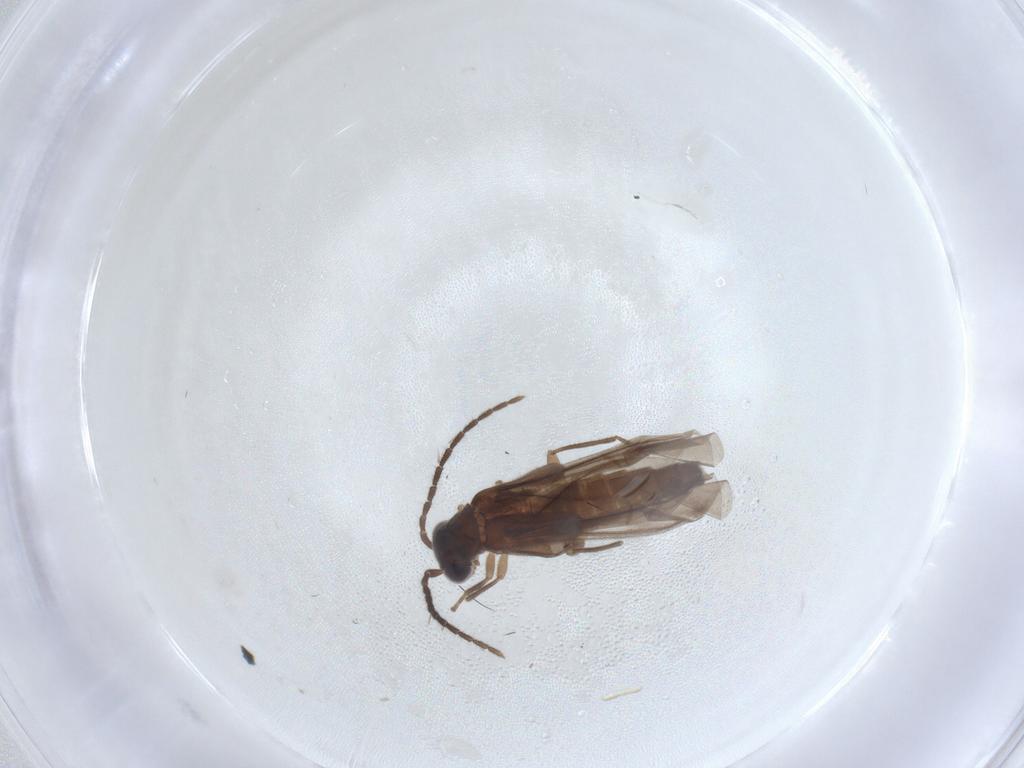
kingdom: Animalia
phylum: Arthropoda
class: Insecta
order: Coleoptera
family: Cantharidae
